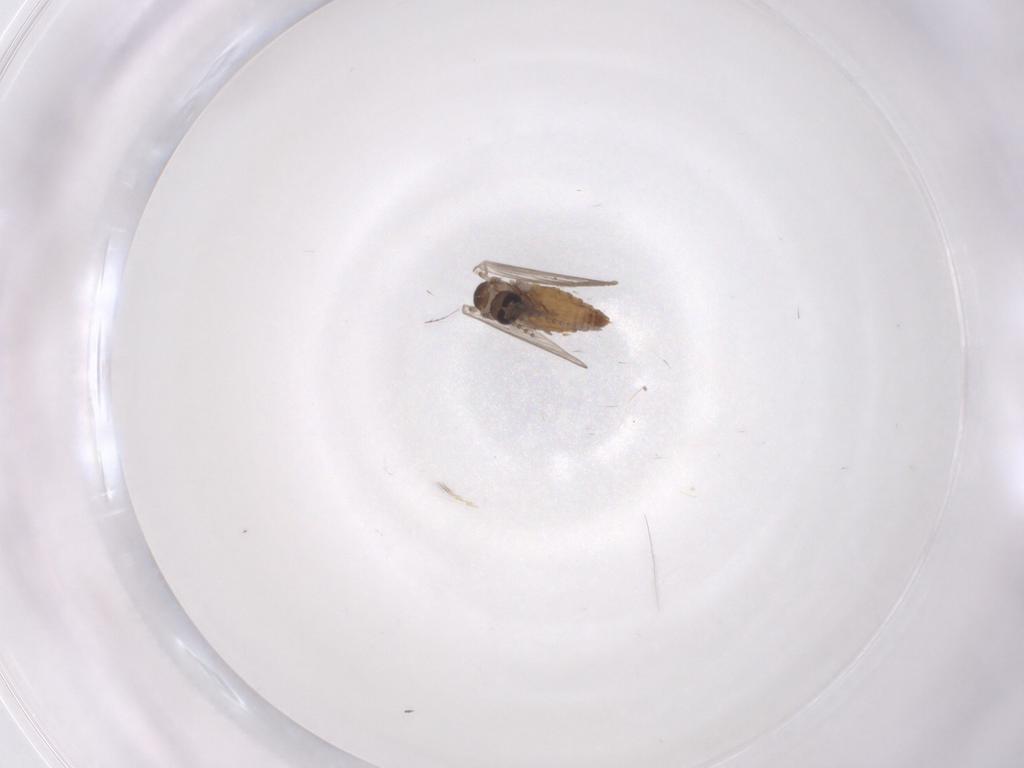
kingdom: Animalia
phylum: Arthropoda
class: Insecta
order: Diptera
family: Psychodidae
